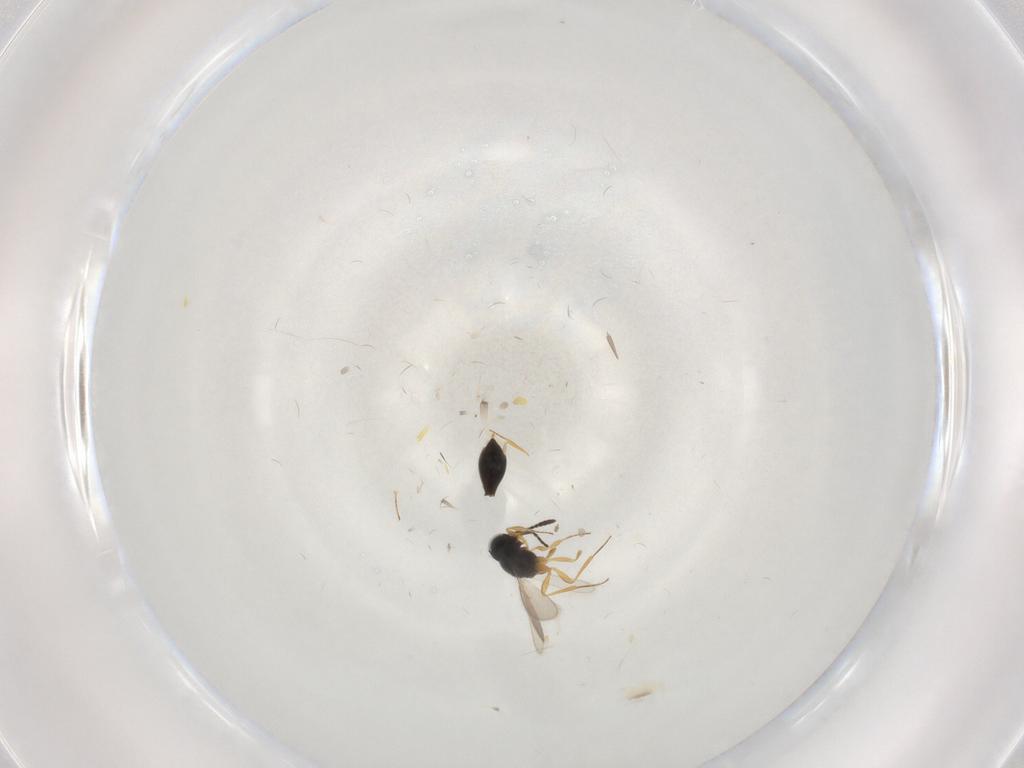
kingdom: Animalia
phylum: Arthropoda
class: Insecta
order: Hymenoptera
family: Scelionidae
